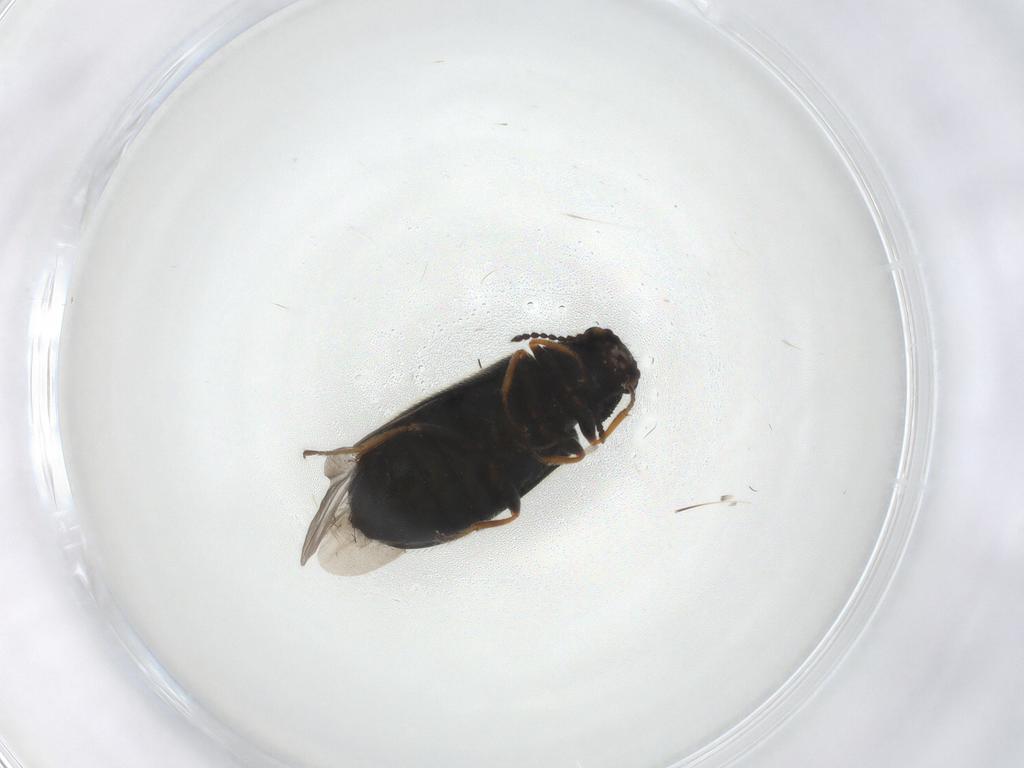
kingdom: Animalia
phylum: Arthropoda
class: Insecta
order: Coleoptera
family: Melyridae
